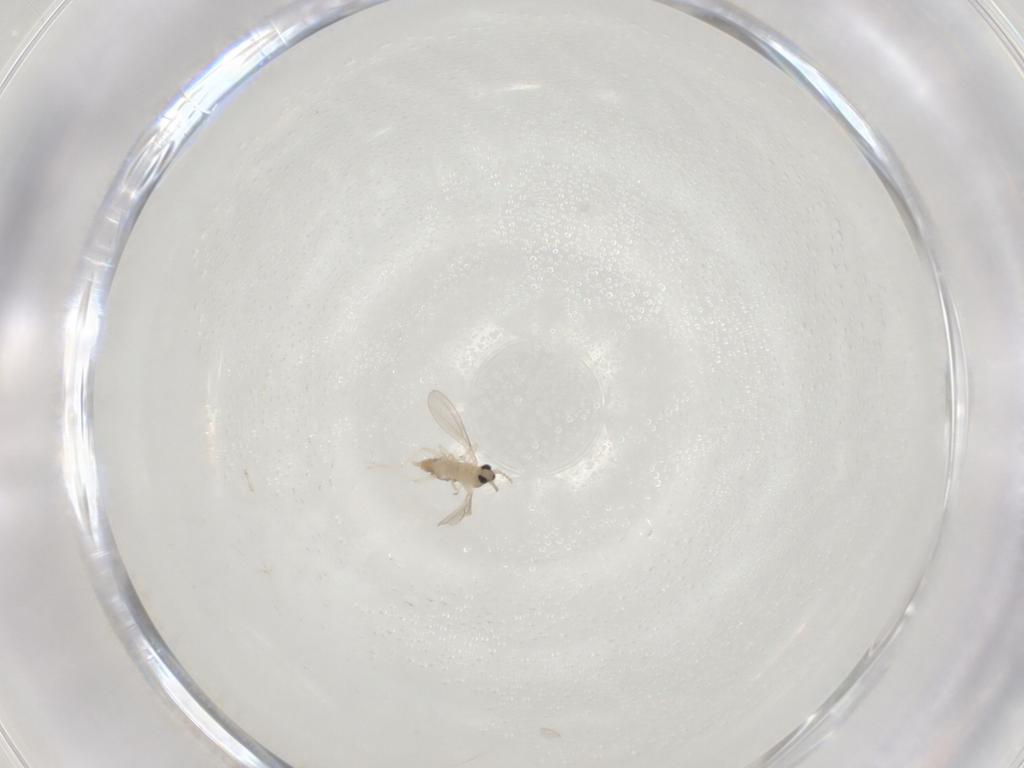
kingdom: Animalia
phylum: Arthropoda
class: Insecta
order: Diptera
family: Cecidomyiidae
